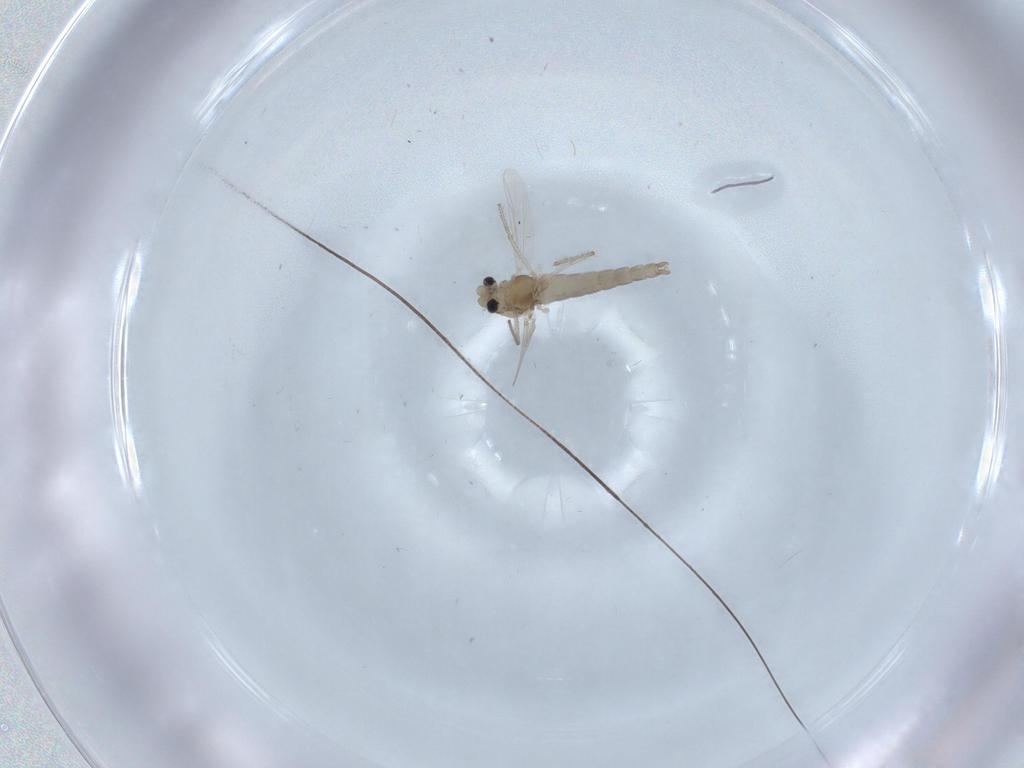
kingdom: Animalia
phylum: Arthropoda
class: Insecta
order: Diptera
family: Chironomidae
